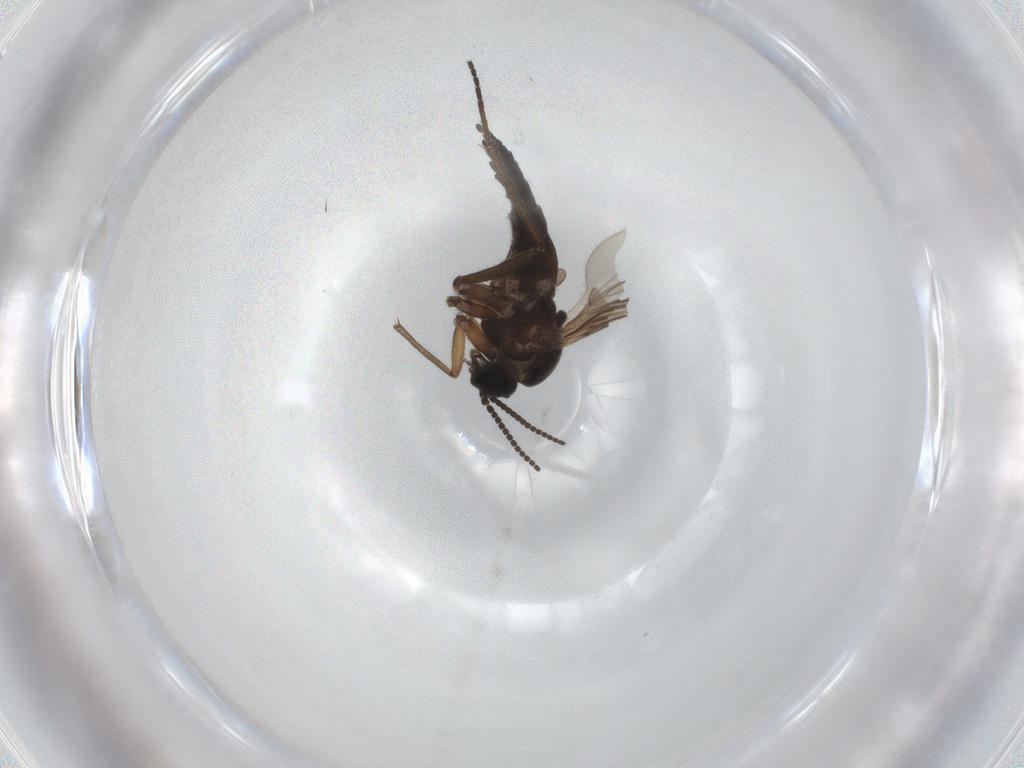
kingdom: Animalia
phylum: Arthropoda
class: Insecta
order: Diptera
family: Sciaridae
